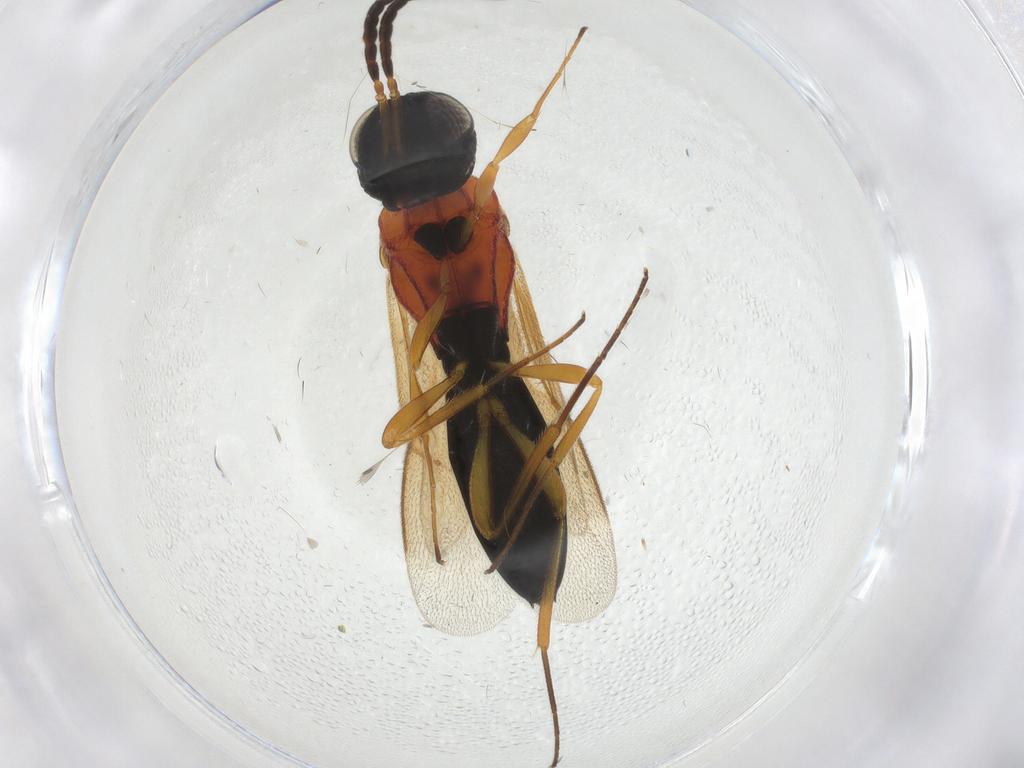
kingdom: Animalia
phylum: Arthropoda
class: Insecta
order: Hymenoptera
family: Scelionidae
